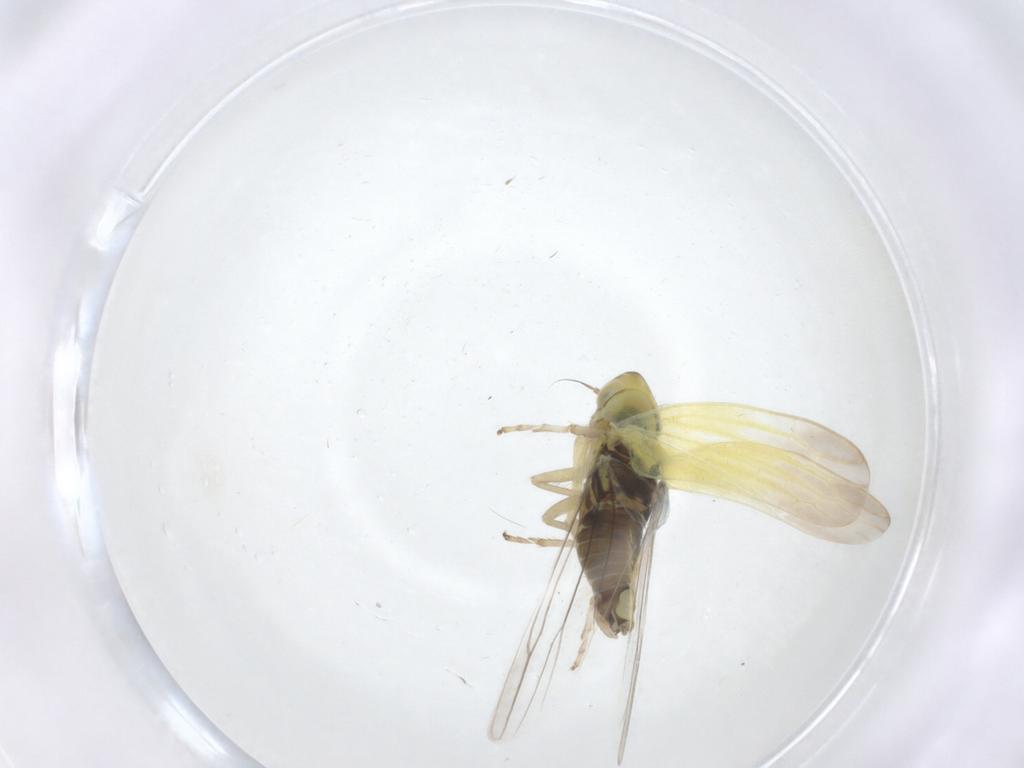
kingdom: Animalia
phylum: Arthropoda
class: Insecta
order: Hemiptera
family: Cicadellidae
